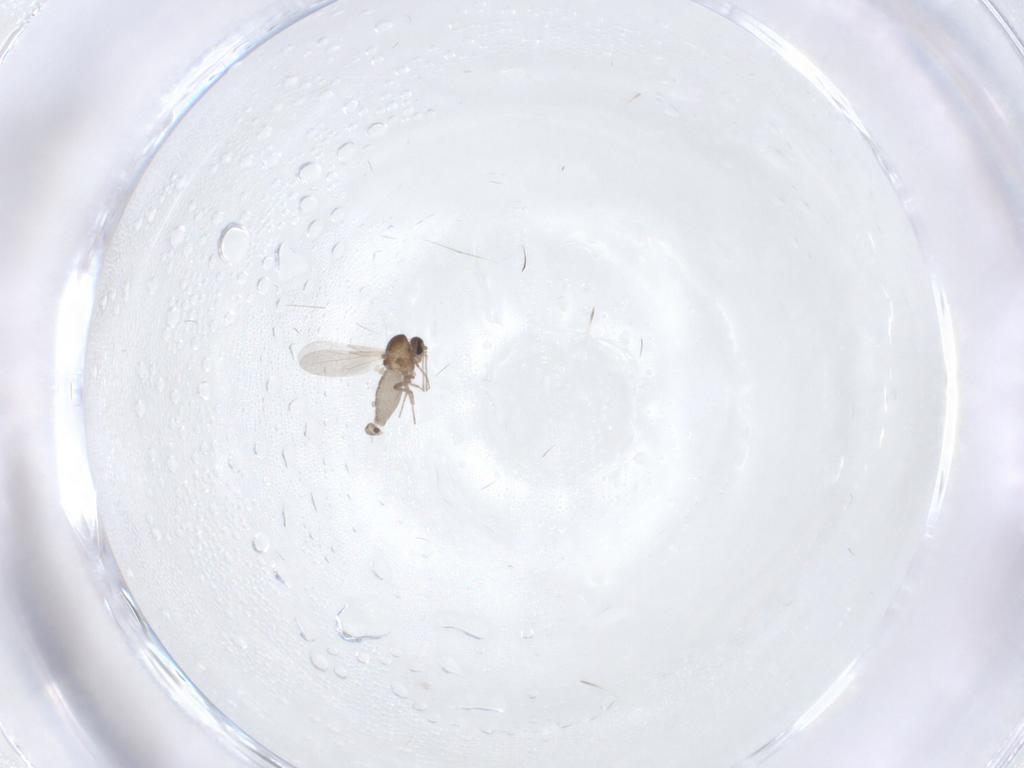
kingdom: Animalia
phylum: Arthropoda
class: Insecta
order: Diptera
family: Ceratopogonidae
